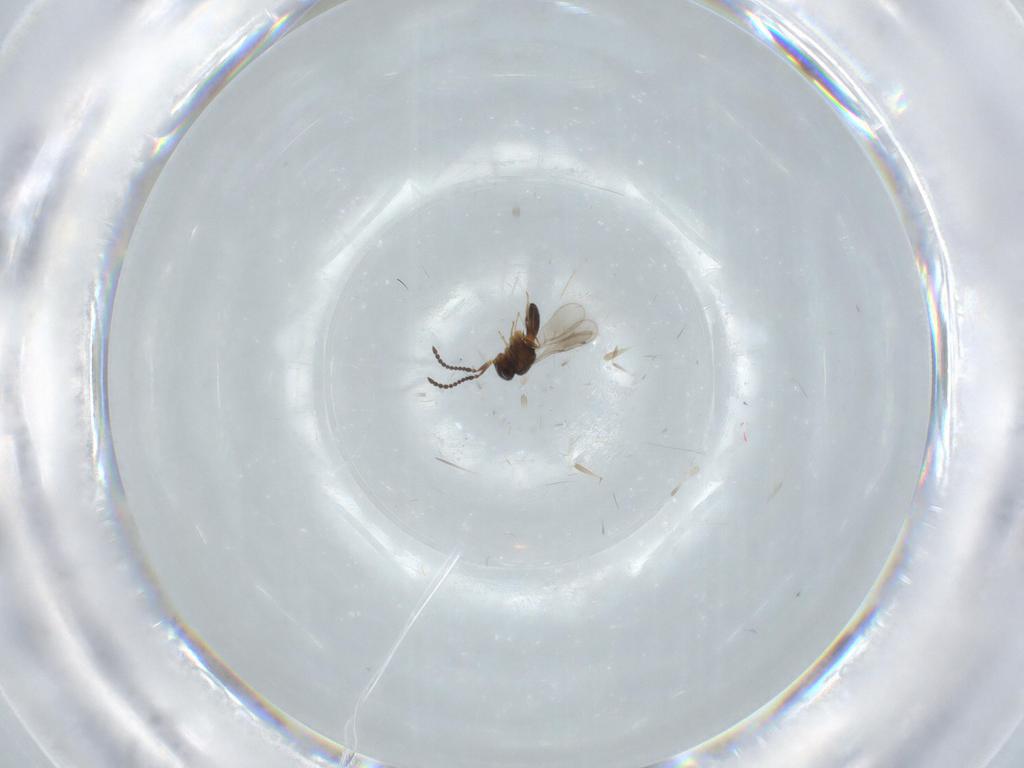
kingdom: Animalia
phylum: Arthropoda
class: Insecta
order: Hymenoptera
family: Scelionidae
